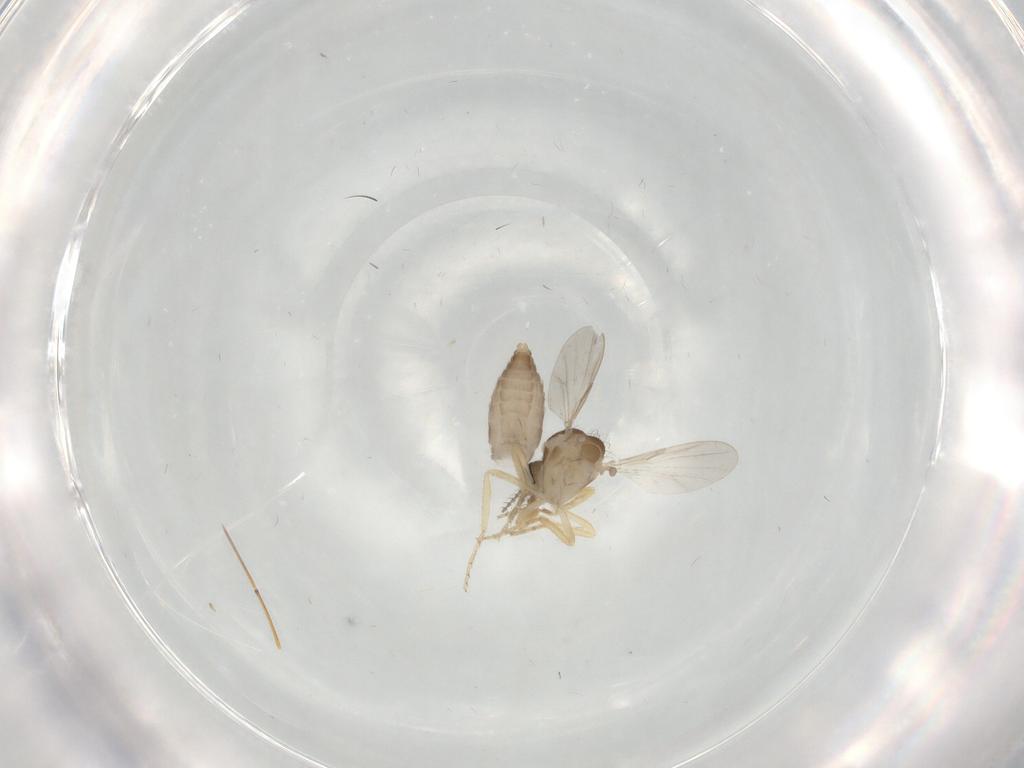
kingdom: Animalia
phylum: Arthropoda
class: Insecta
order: Diptera
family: Ceratopogonidae
